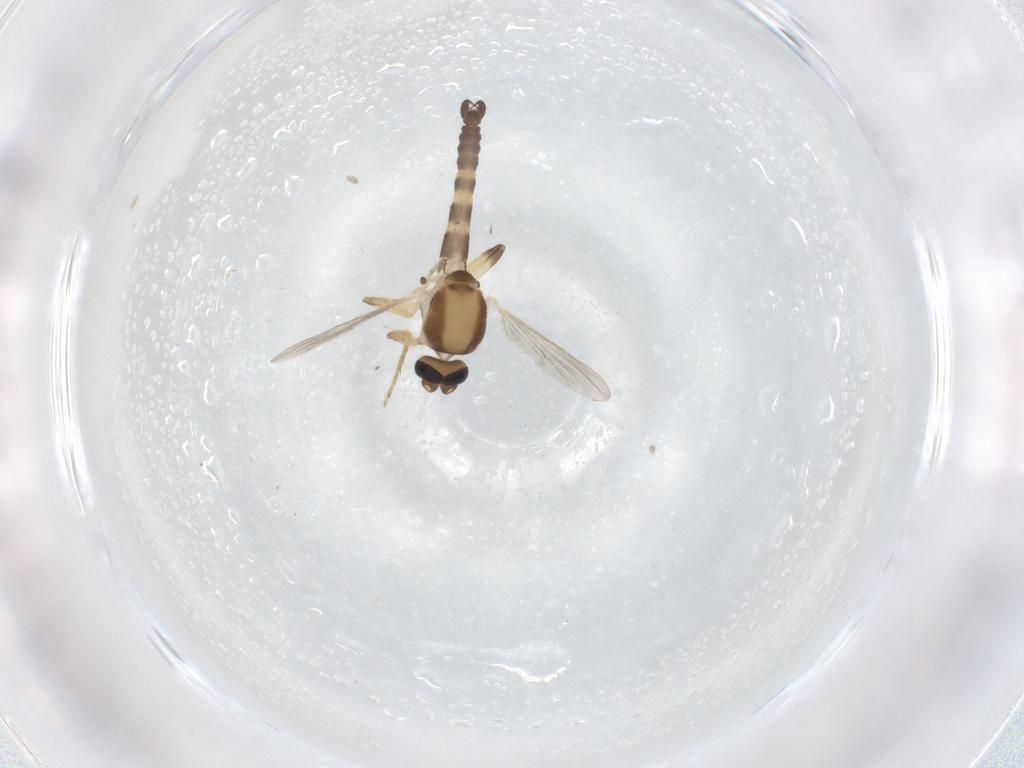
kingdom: Animalia
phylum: Arthropoda
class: Insecta
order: Diptera
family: Ceratopogonidae
